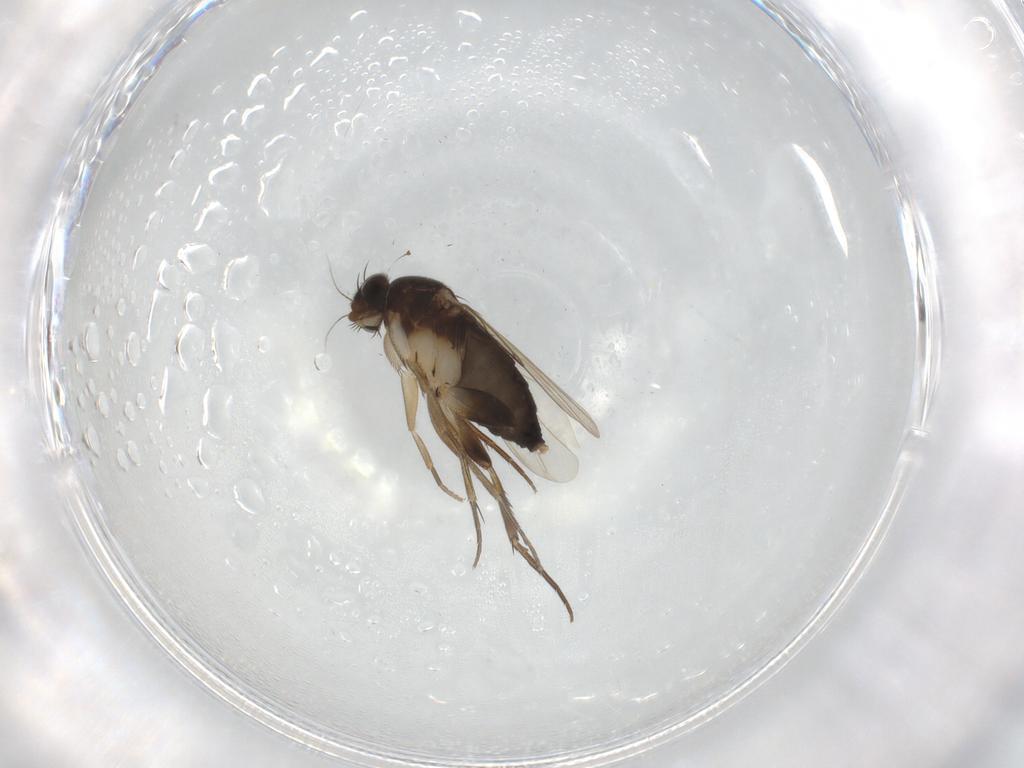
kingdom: Animalia
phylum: Arthropoda
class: Insecta
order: Diptera
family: Phoridae
